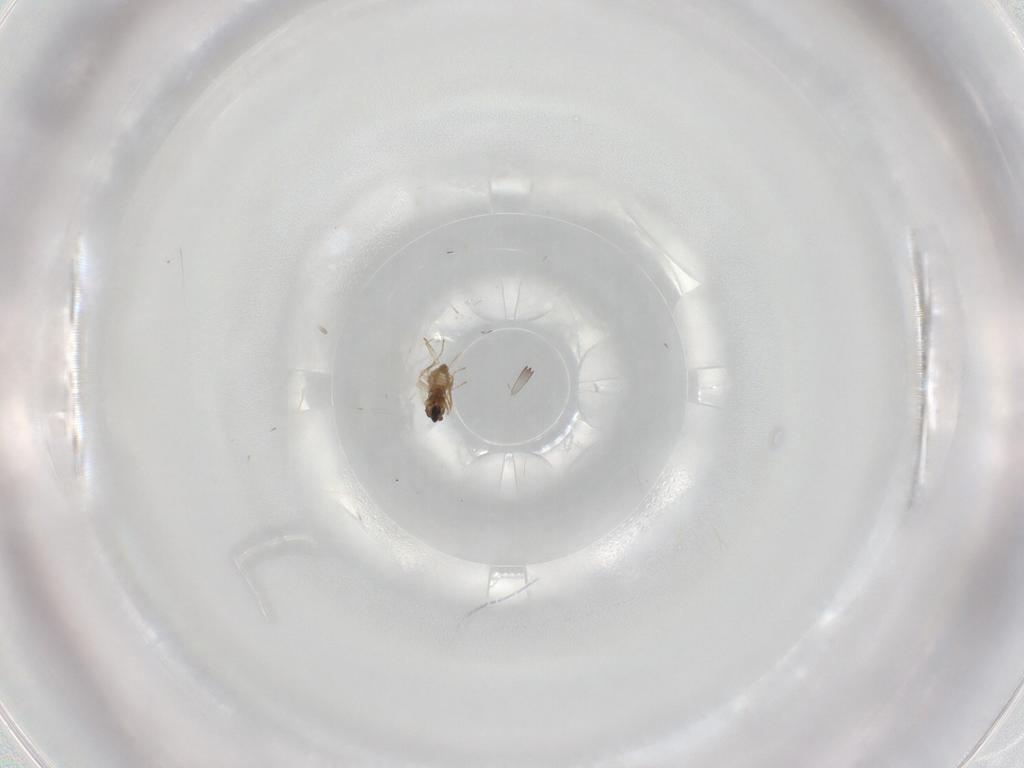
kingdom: Animalia
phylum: Arthropoda
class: Insecta
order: Diptera
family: Cecidomyiidae
